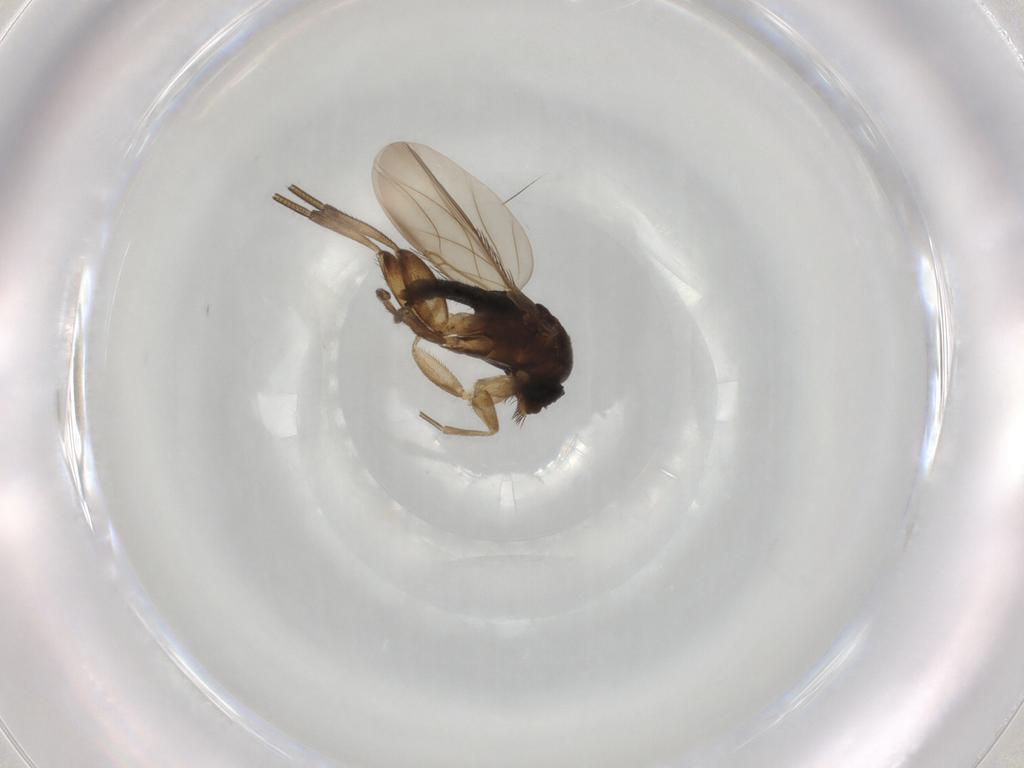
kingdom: Animalia
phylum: Arthropoda
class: Insecta
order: Diptera
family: Phoridae
